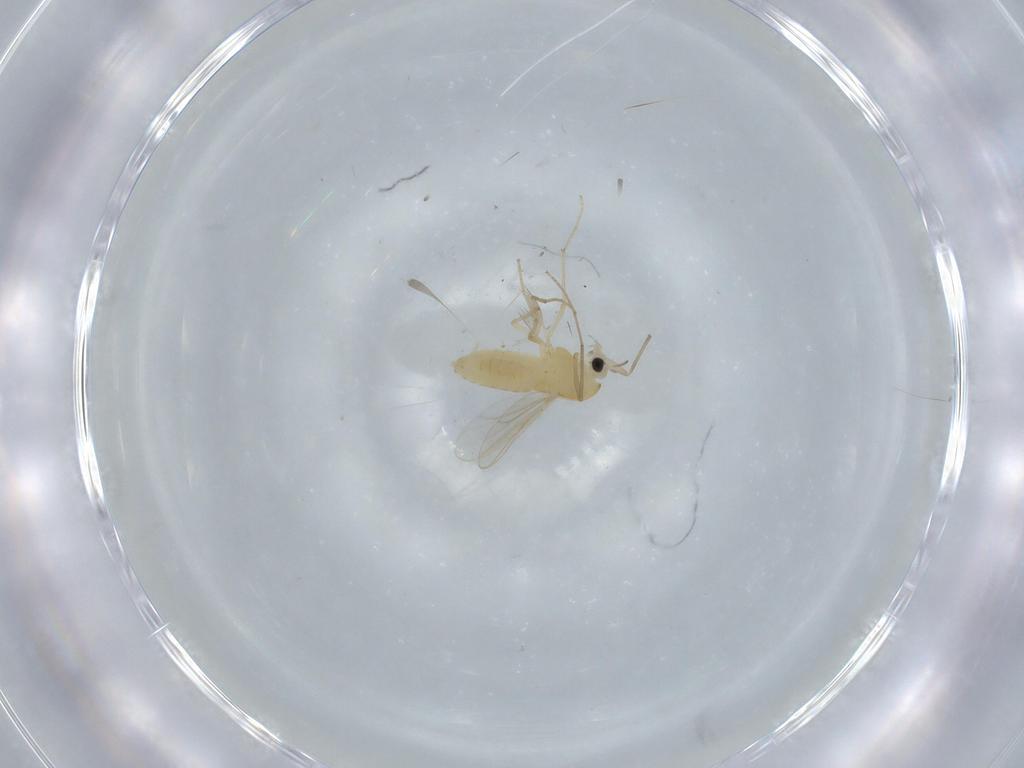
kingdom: Animalia
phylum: Arthropoda
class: Insecta
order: Diptera
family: Chironomidae
